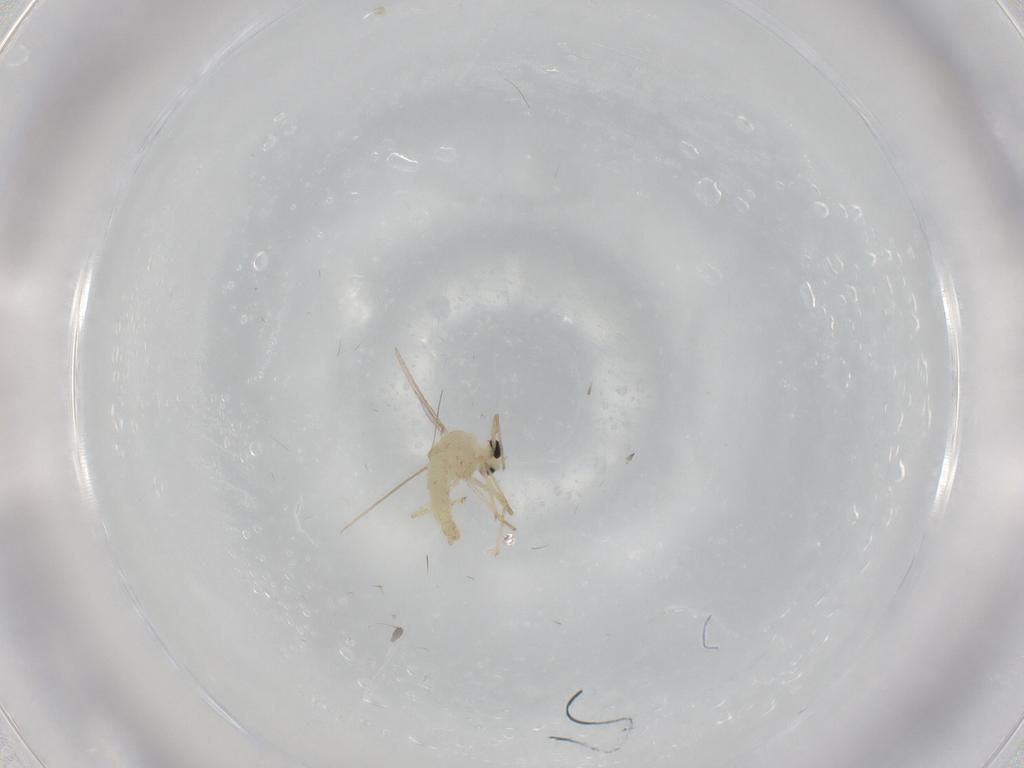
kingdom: Animalia
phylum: Arthropoda
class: Insecta
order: Diptera
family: Chironomidae
